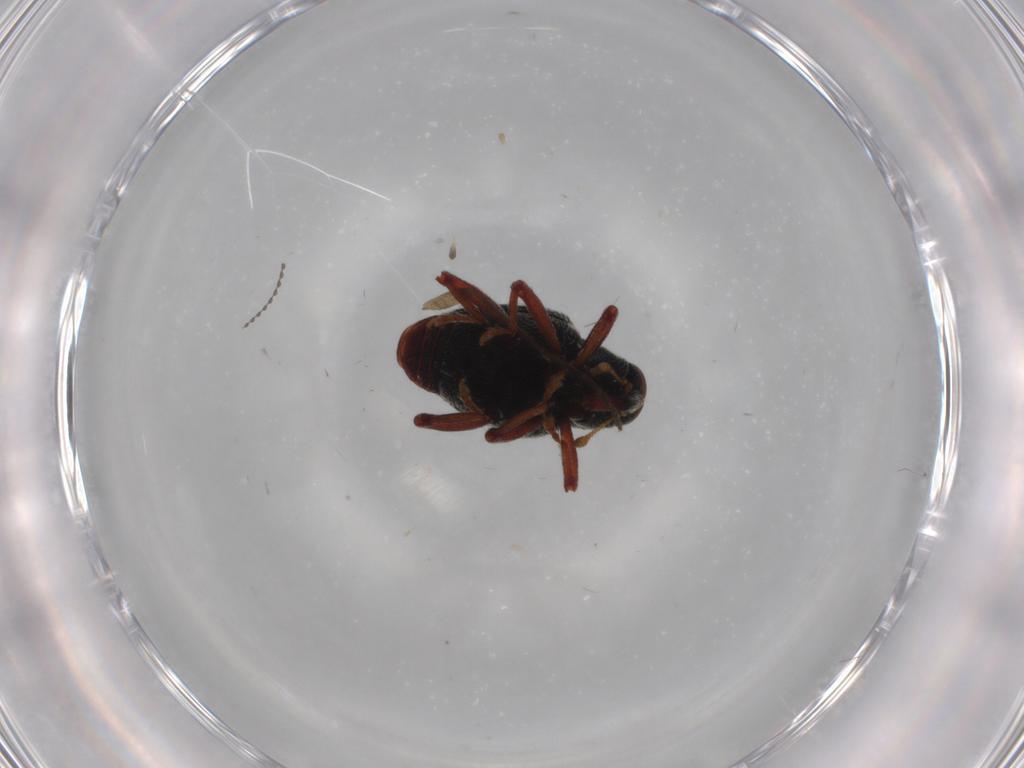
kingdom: Animalia
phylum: Arthropoda
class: Insecta
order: Coleoptera
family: Curculionidae
